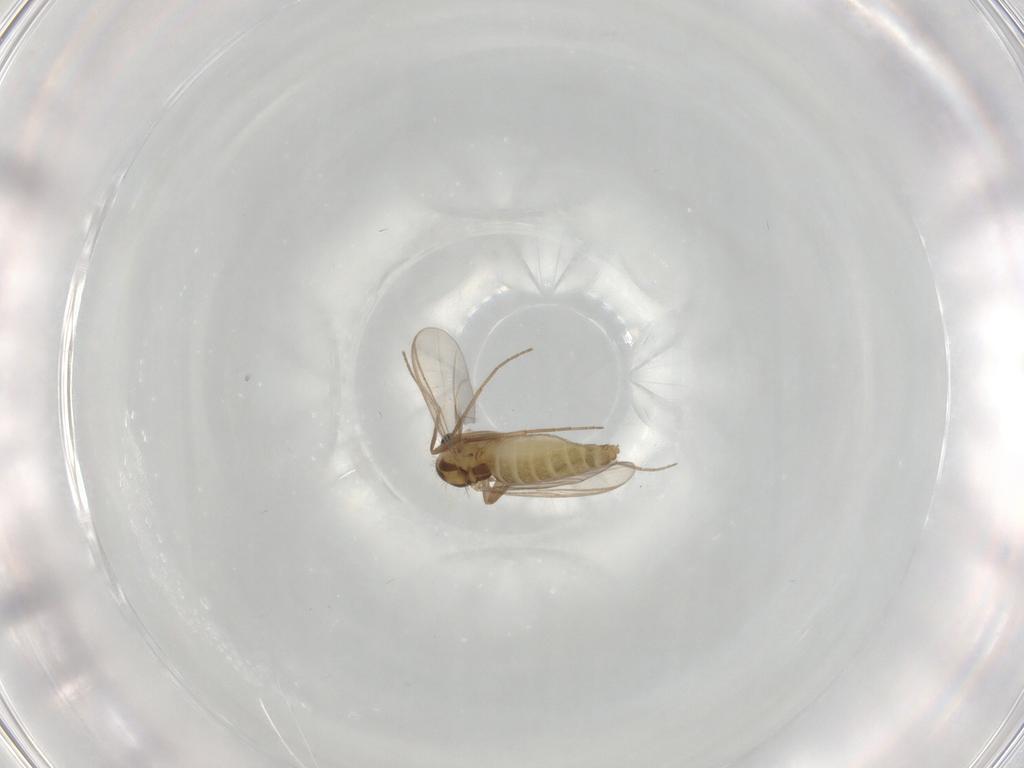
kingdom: Animalia
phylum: Arthropoda
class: Insecta
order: Diptera
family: Chironomidae
